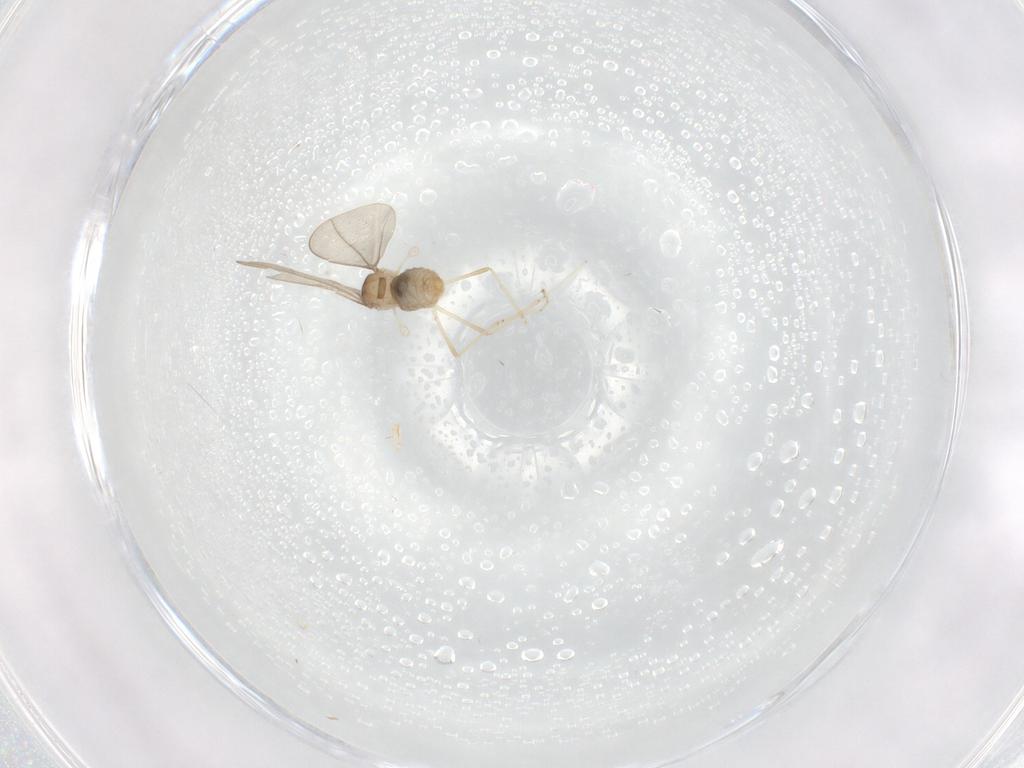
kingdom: Animalia
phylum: Arthropoda
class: Insecta
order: Diptera
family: Cecidomyiidae
